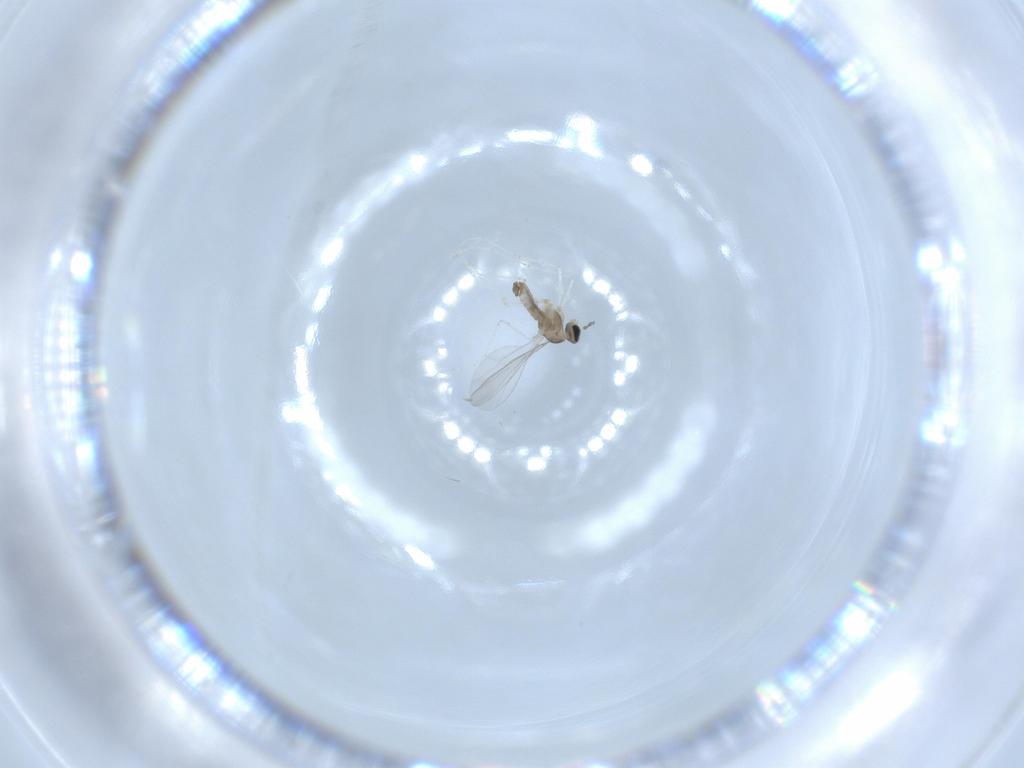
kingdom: Animalia
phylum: Arthropoda
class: Insecta
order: Diptera
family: Cecidomyiidae
